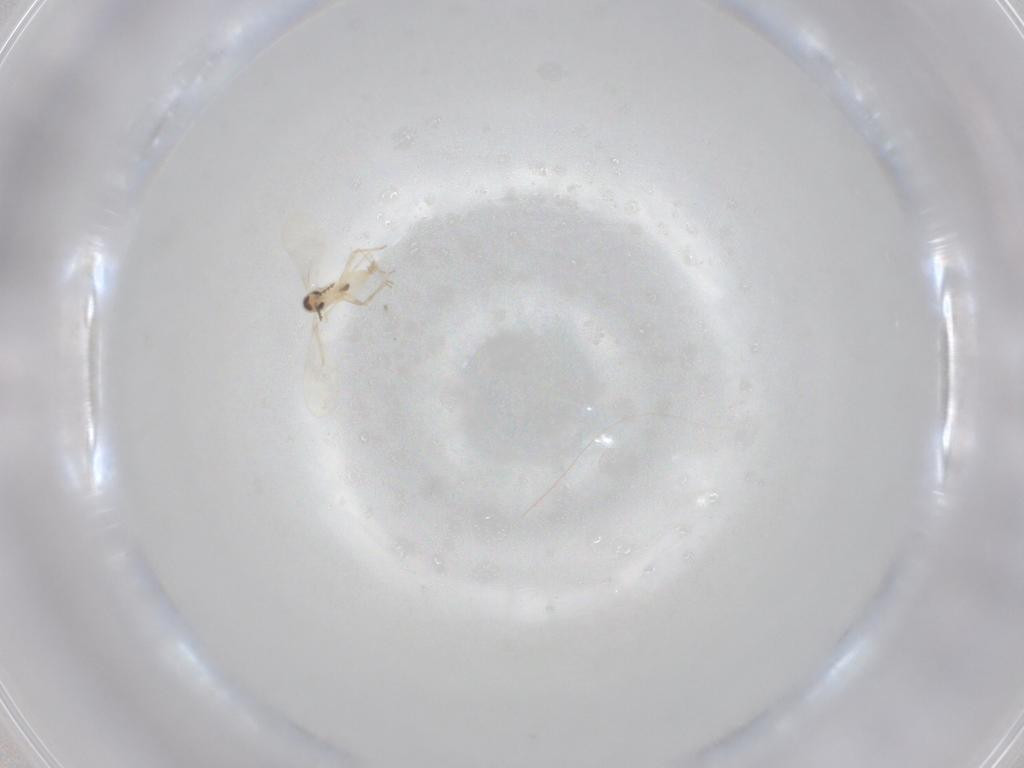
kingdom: Animalia
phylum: Arthropoda
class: Insecta
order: Diptera
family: Cecidomyiidae
